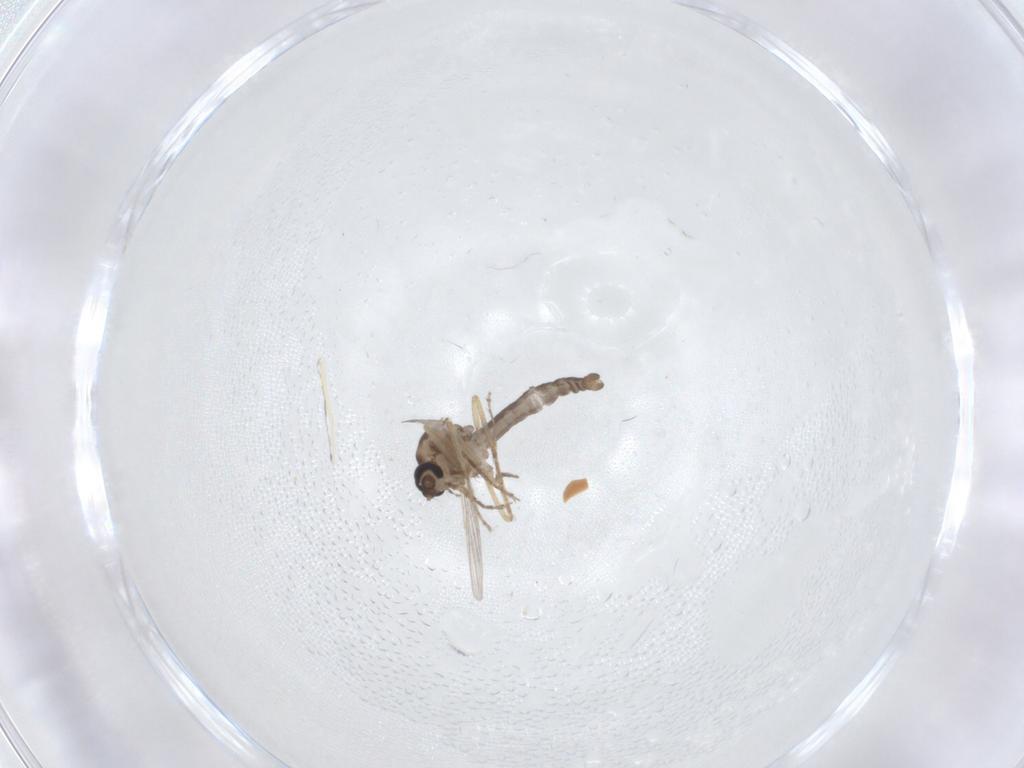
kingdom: Animalia
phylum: Arthropoda
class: Insecta
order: Diptera
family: Ceratopogonidae
